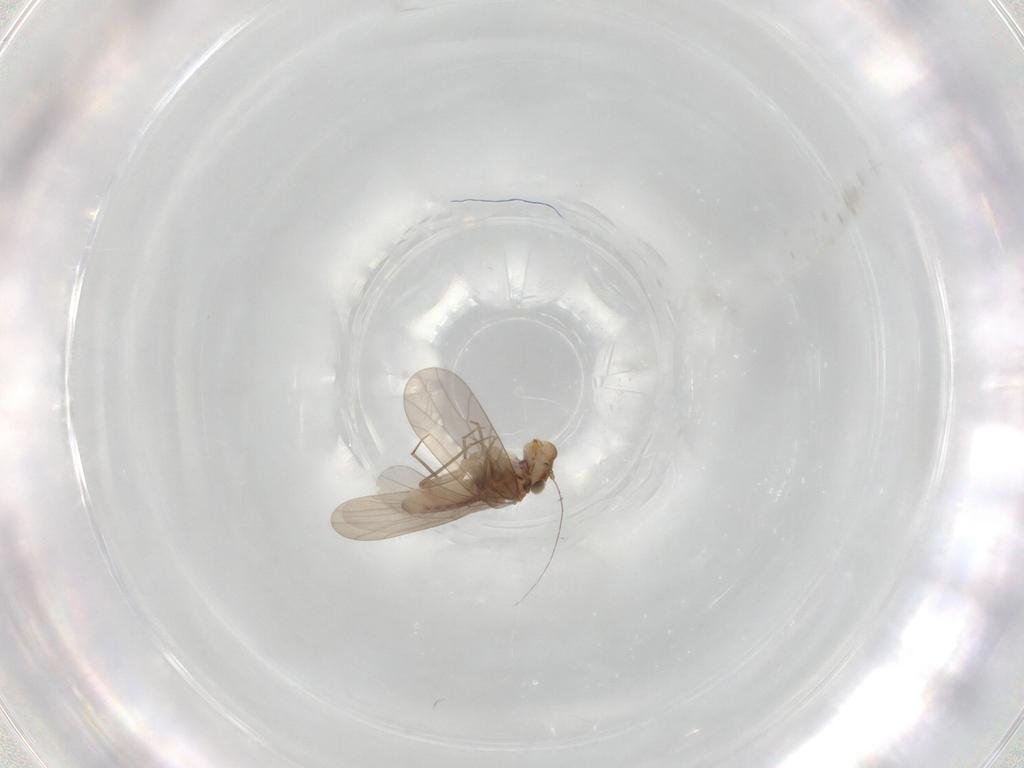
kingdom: Animalia
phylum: Arthropoda
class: Insecta
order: Psocodea
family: Lepidopsocidae
